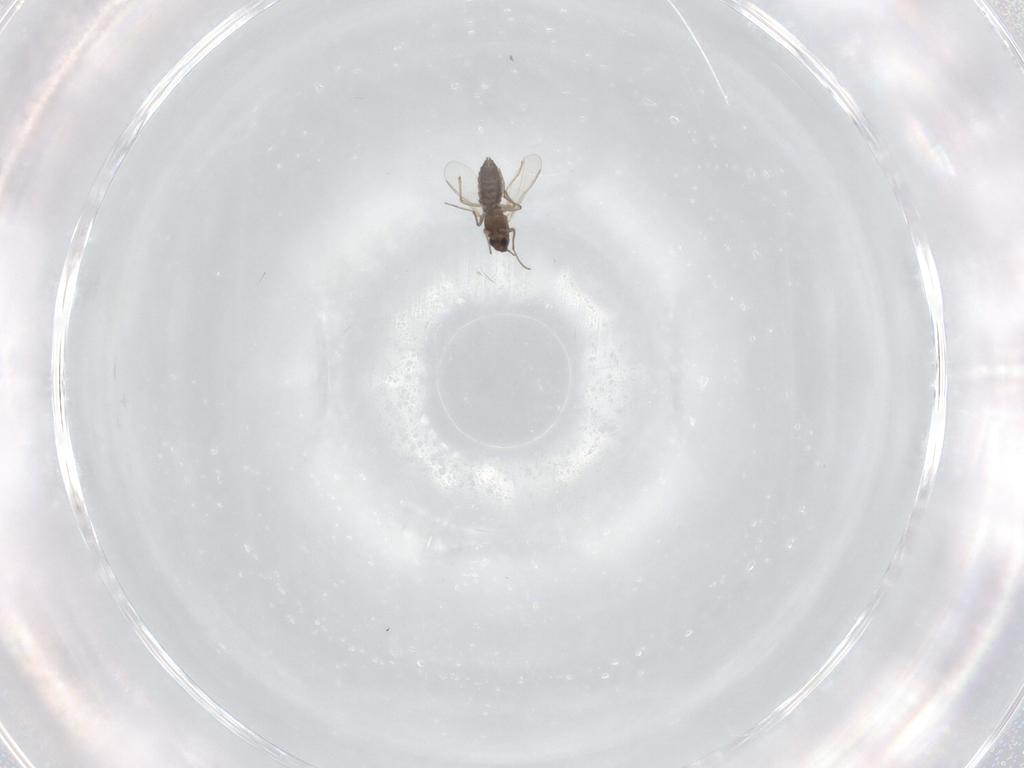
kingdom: Animalia
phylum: Arthropoda
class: Insecta
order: Diptera
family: Chironomidae
